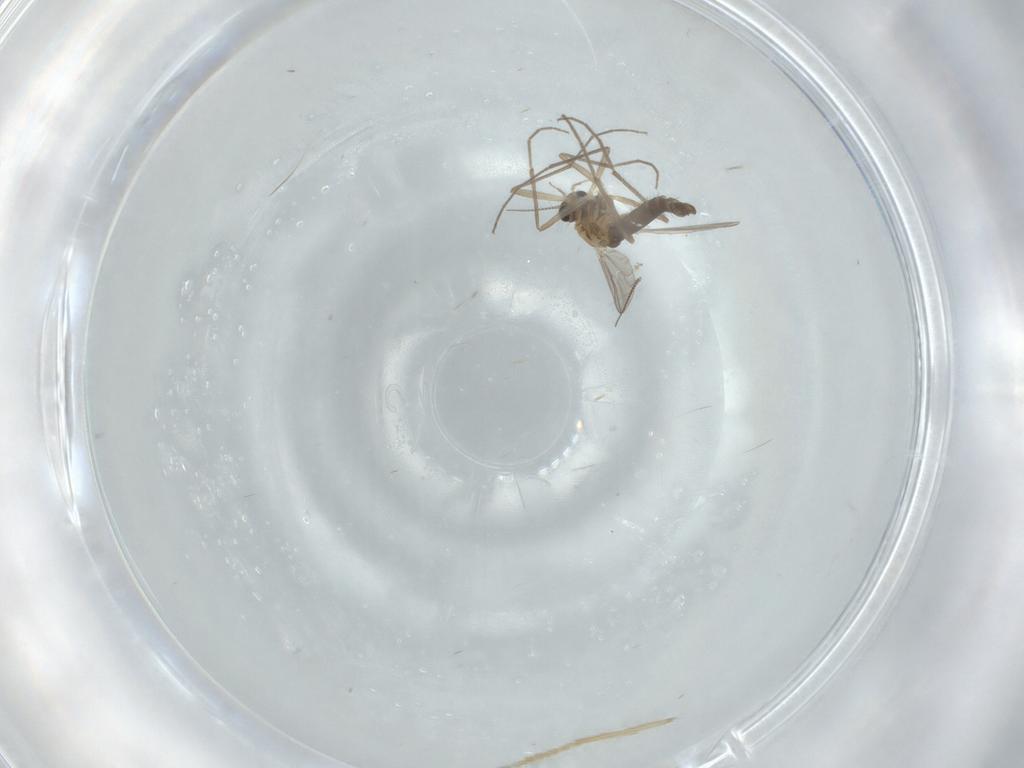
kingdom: Animalia
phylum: Arthropoda
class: Insecta
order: Diptera
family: Chironomidae
